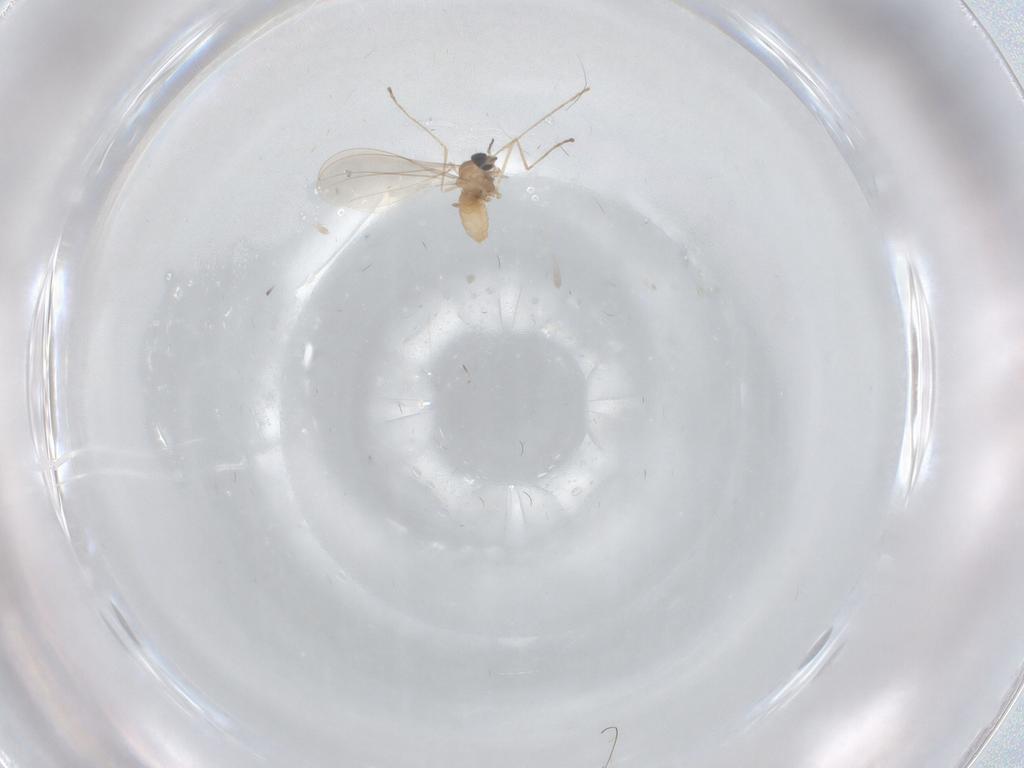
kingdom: Animalia
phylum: Arthropoda
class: Insecta
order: Diptera
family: Cecidomyiidae
